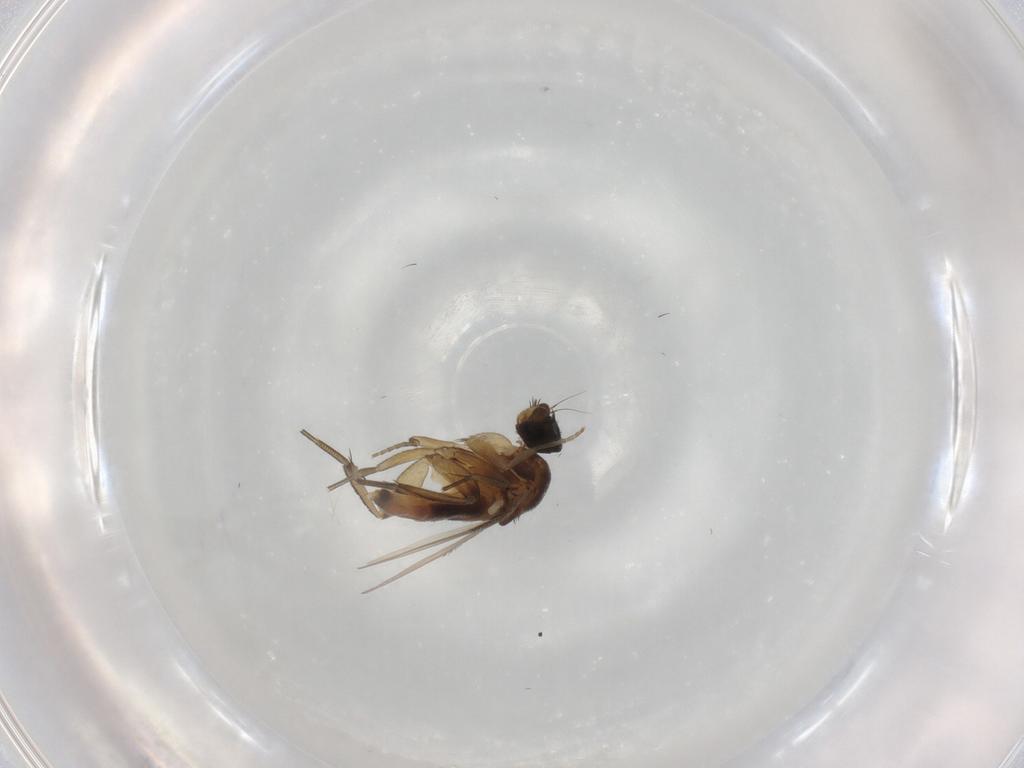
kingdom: Animalia
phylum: Arthropoda
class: Insecta
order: Diptera
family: Phoridae
